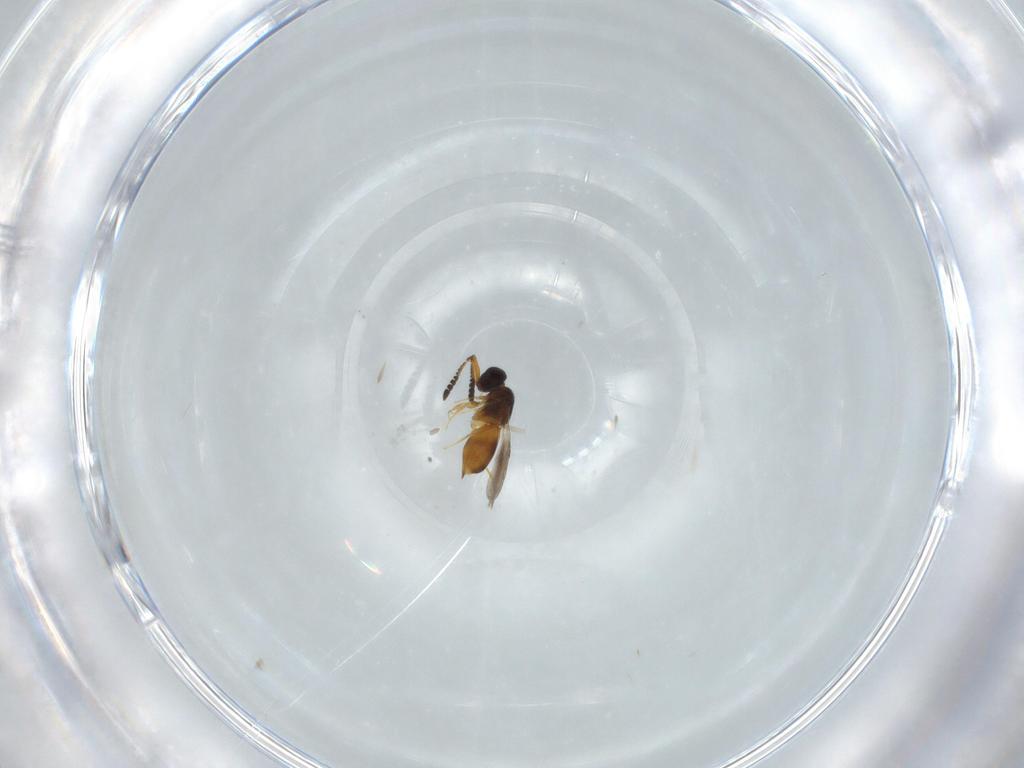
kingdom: Animalia
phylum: Arthropoda
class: Insecta
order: Hymenoptera
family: Ceraphronidae
